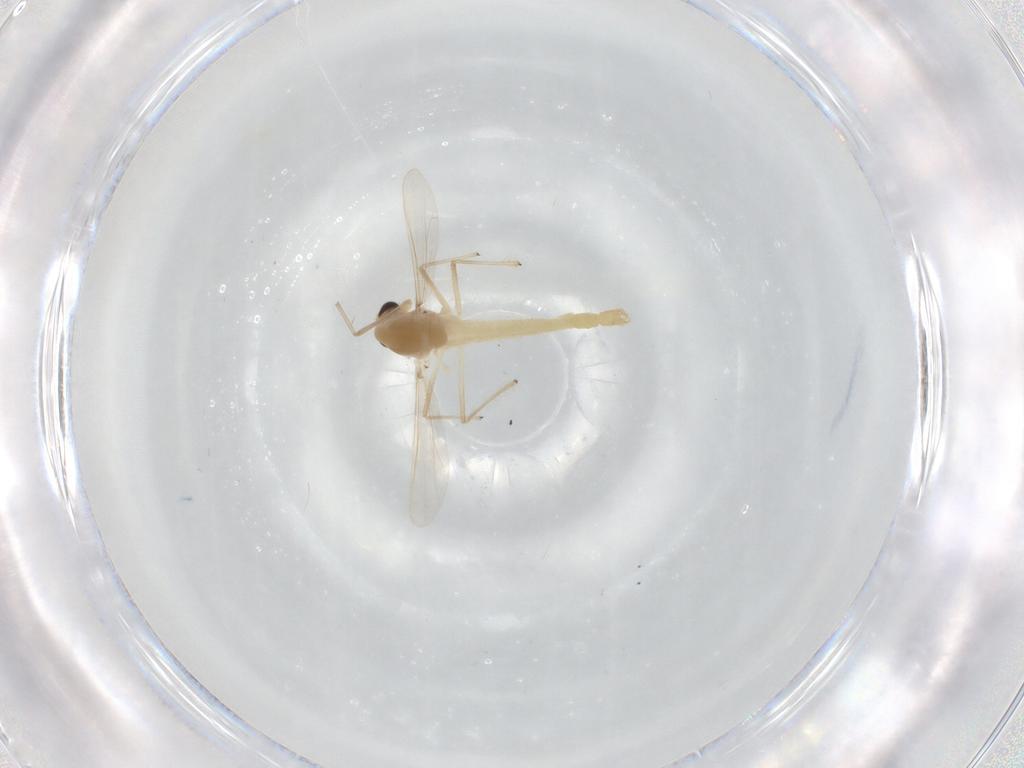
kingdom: Animalia
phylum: Arthropoda
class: Insecta
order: Diptera
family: Chironomidae
